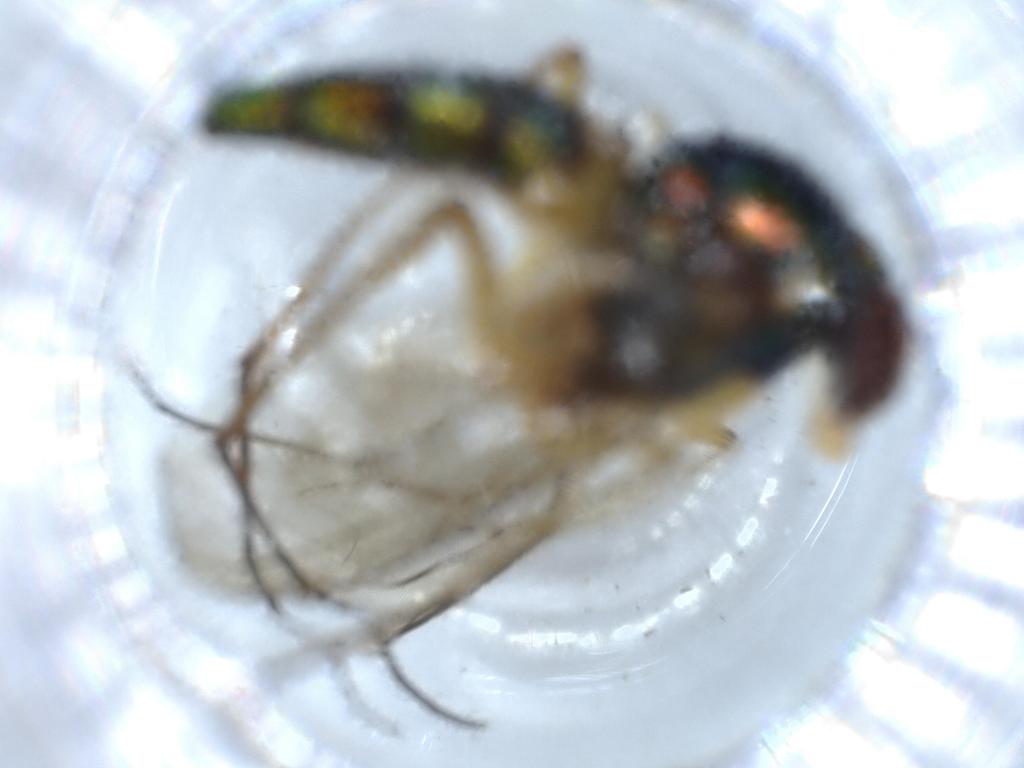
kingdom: Animalia
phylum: Arthropoda
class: Insecta
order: Diptera
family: Dolichopodidae
